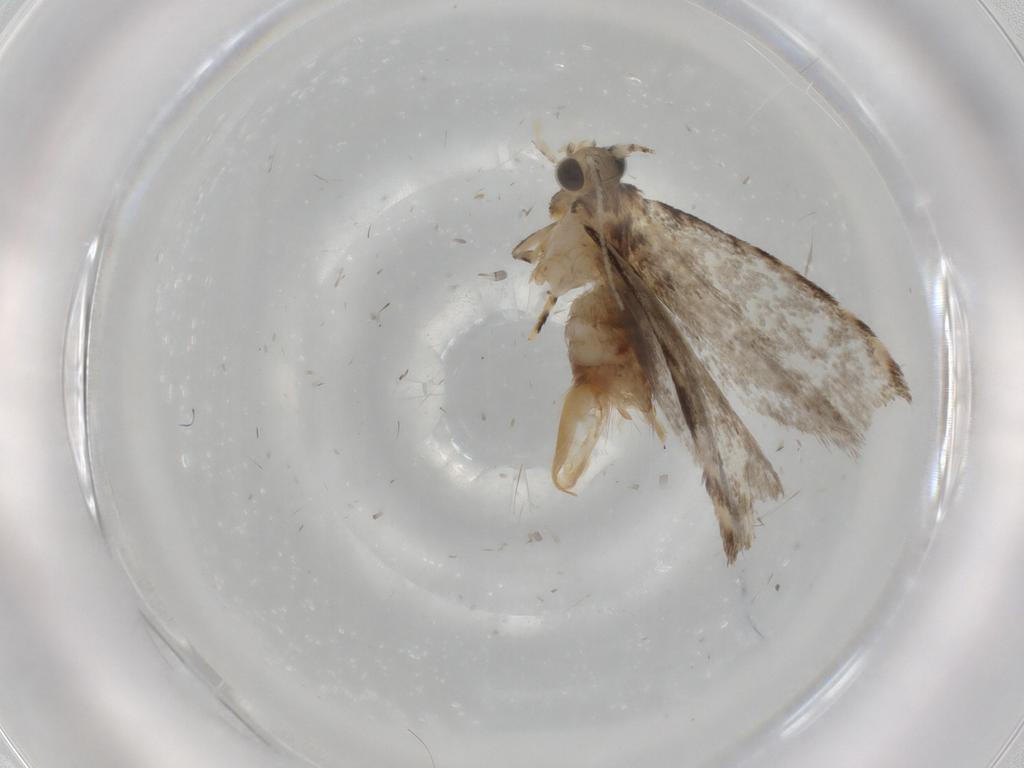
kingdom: Animalia
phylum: Arthropoda
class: Insecta
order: Lepidoptera
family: Tineidae
